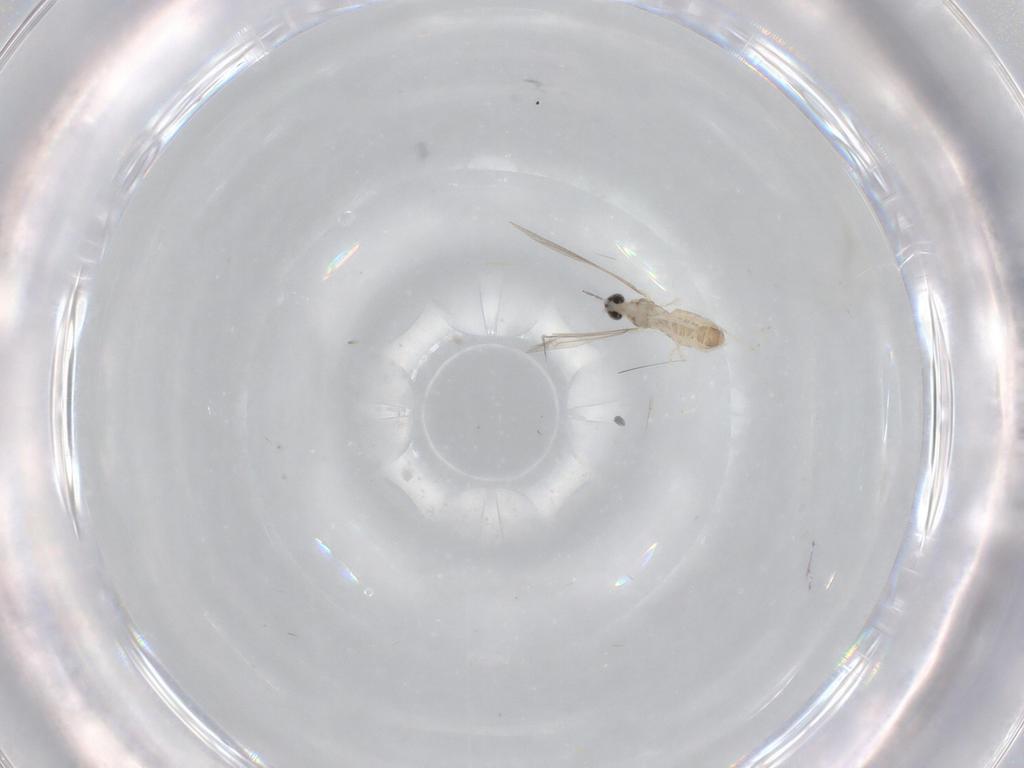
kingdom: Animalia
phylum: Arthropoda
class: Insecta
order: Diptera
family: Cecidomyiidae
